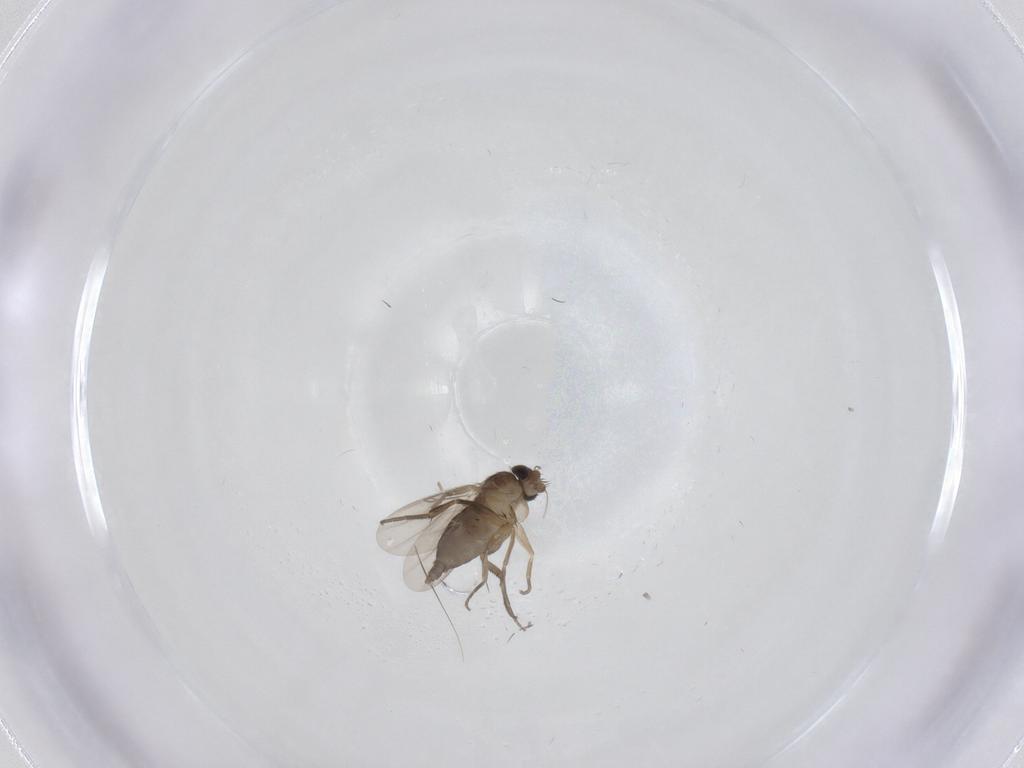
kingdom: Animalia
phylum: Arthropoda
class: Insecta
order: Diptera
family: Phoridae
